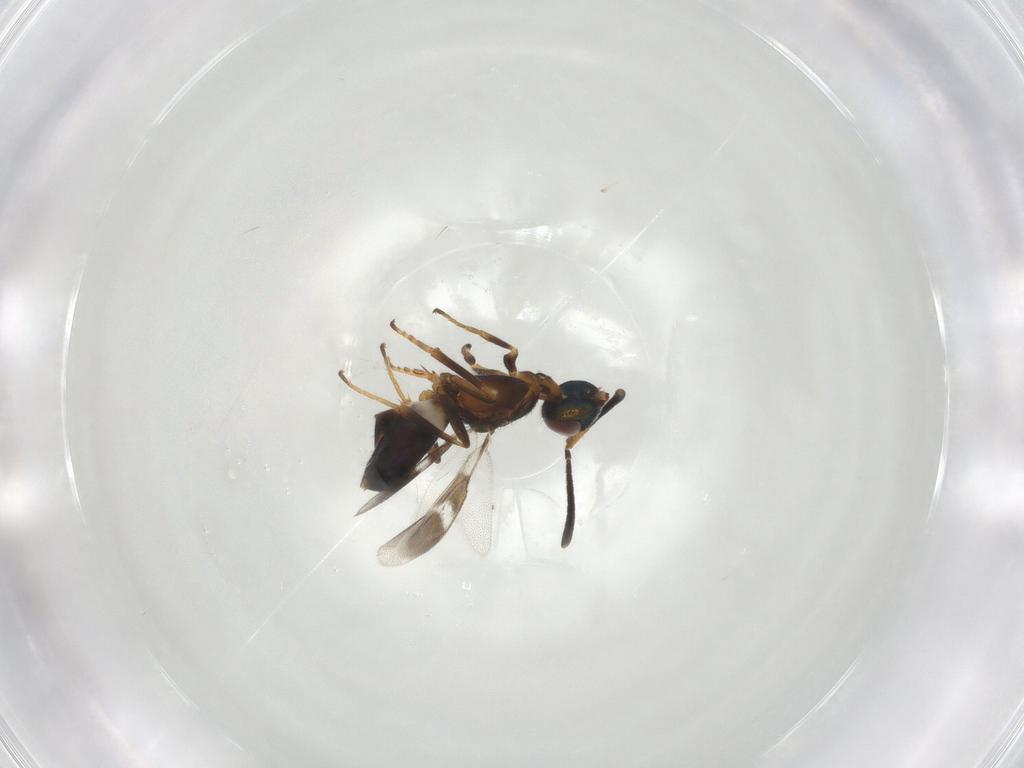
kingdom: Animalia
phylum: Arthropoda
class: Insecta
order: Hymenoptera
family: Eupelmidae
